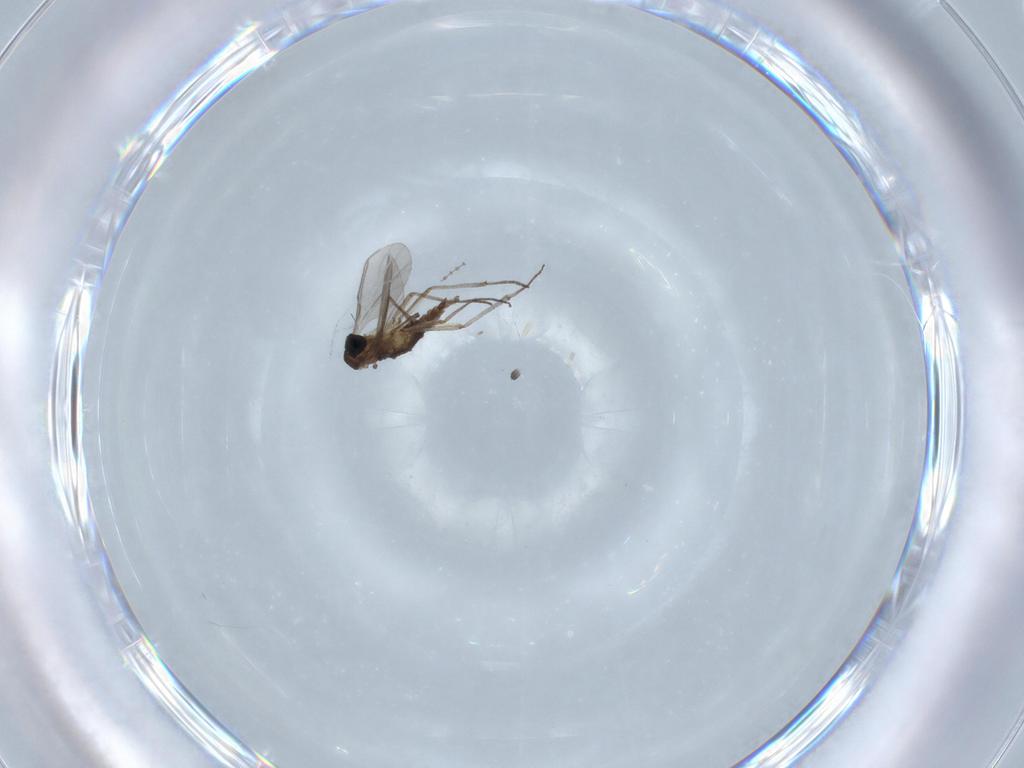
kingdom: Animalia
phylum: Arthropoda
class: Insecta
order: Diptera
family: Sciaridae
